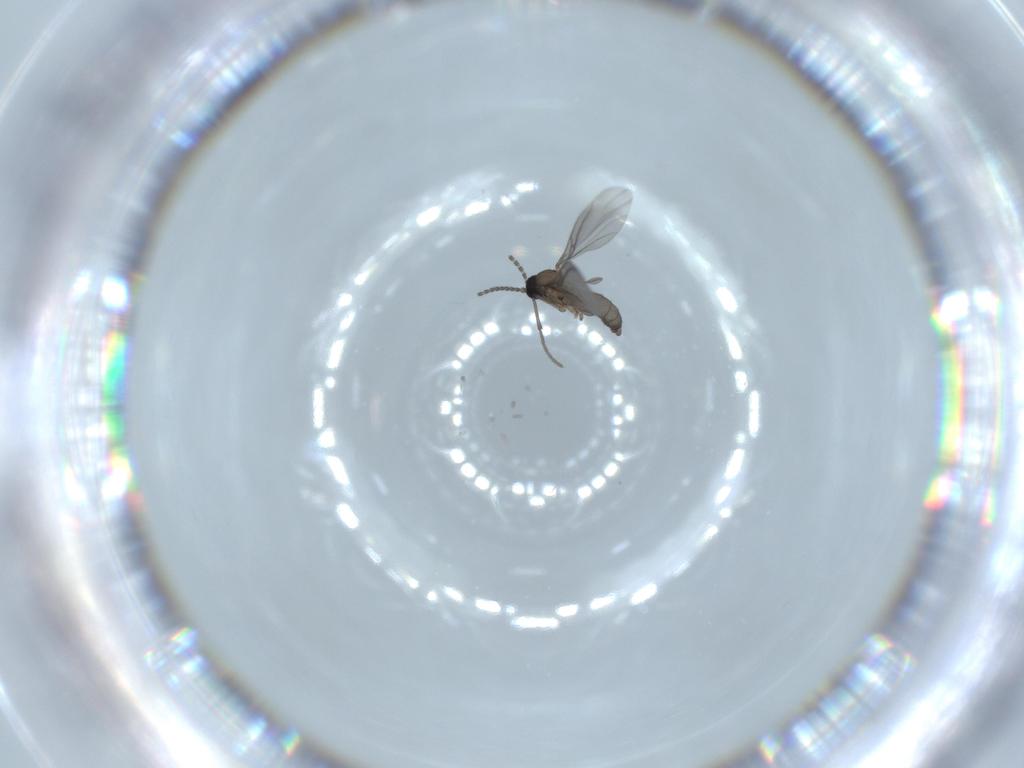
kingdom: Animalia
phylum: Arthropoda
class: Insecta
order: Diptera
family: Sciaridae
